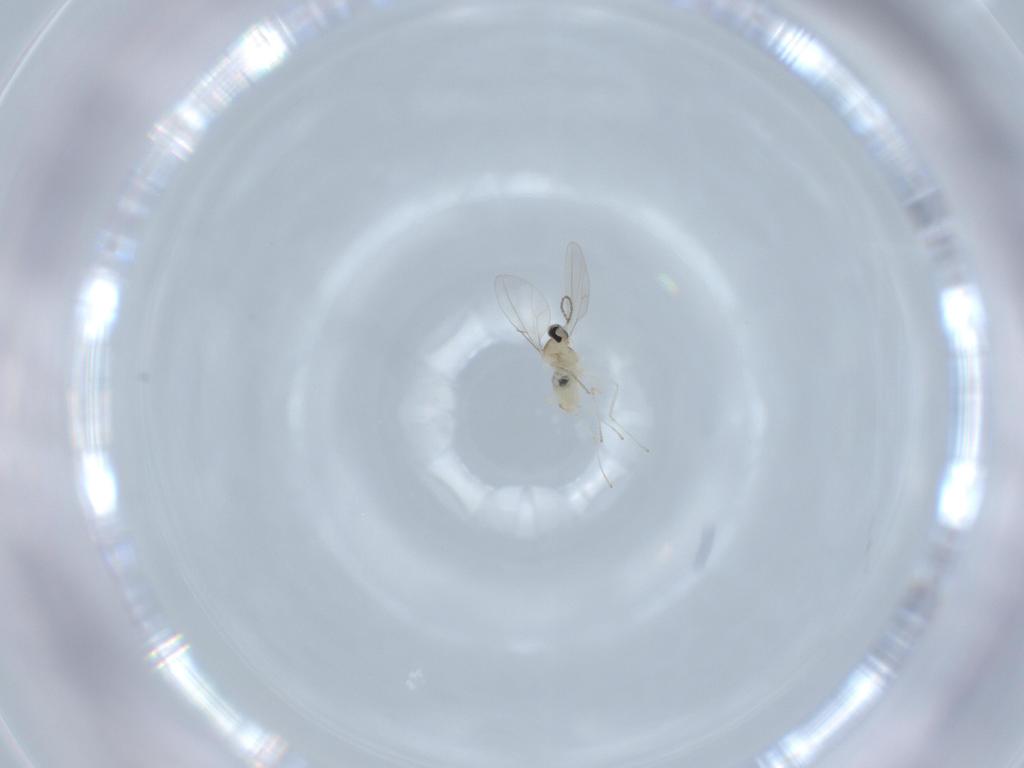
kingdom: Animalia
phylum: Arthropoda
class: Insecta
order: Diptera
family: Cecidomyiidae
